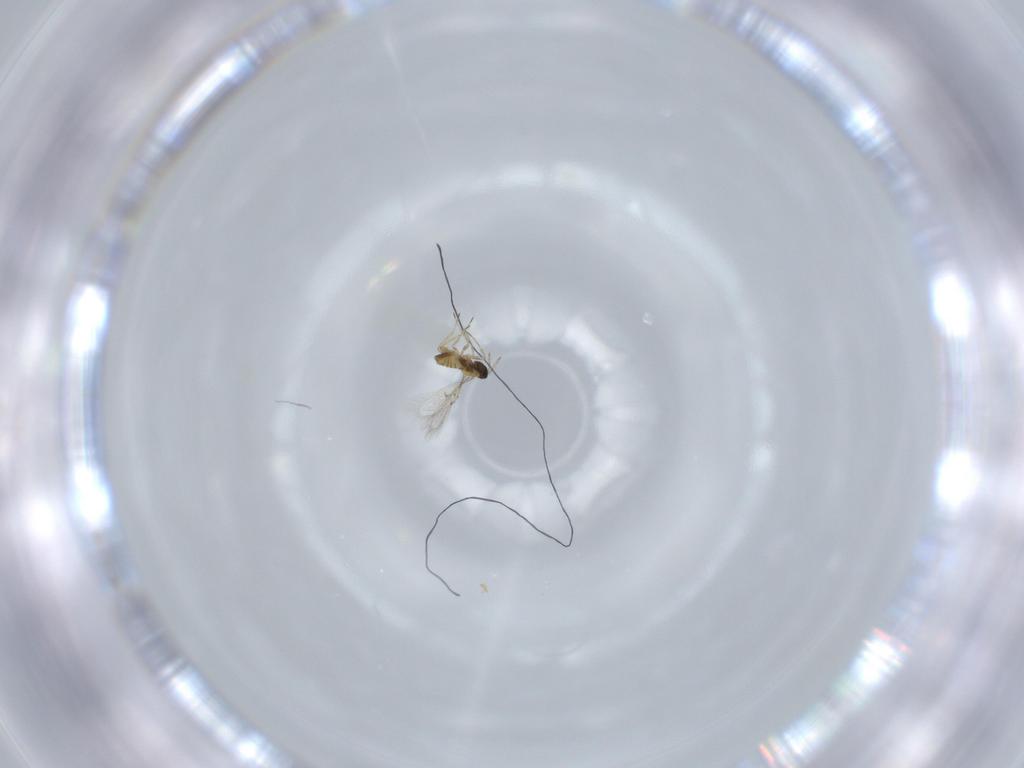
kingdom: Animalia
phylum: Arthropoda
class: Insecta
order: Hymenoptera
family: Trichogrammatidae
